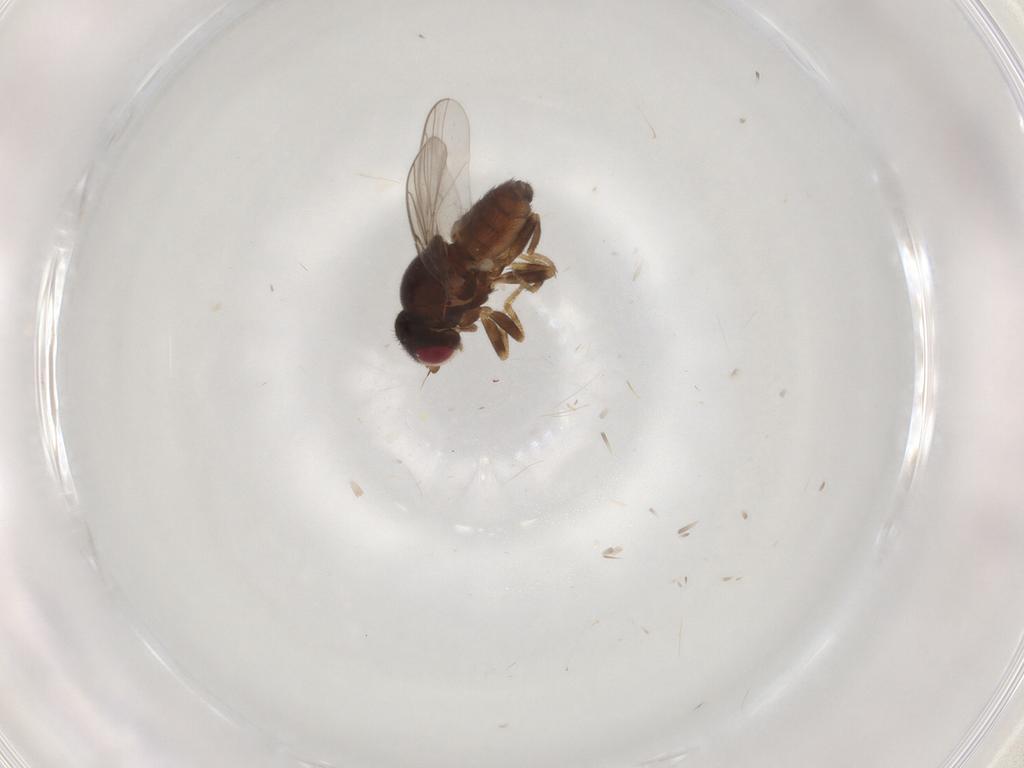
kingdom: Animalia
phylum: Arthropoda
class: Insecta
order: Diptera
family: Chloropidae
